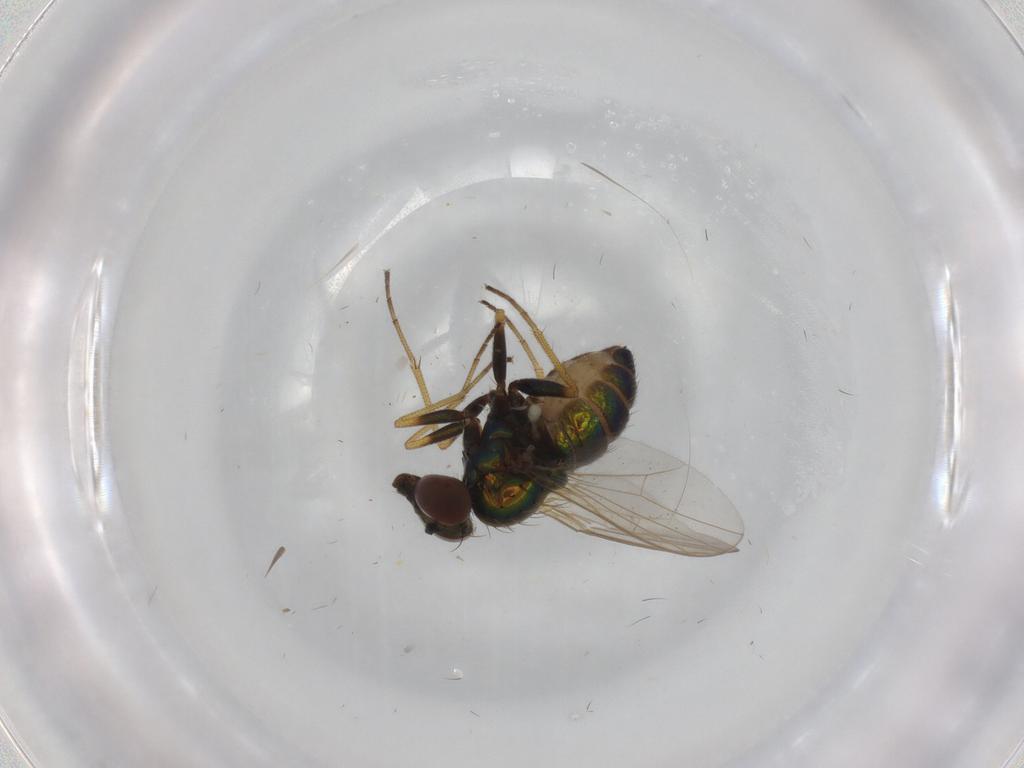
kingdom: Animalia
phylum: Arthropoda
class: Insecta
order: Diptera
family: Dolichopodidae
